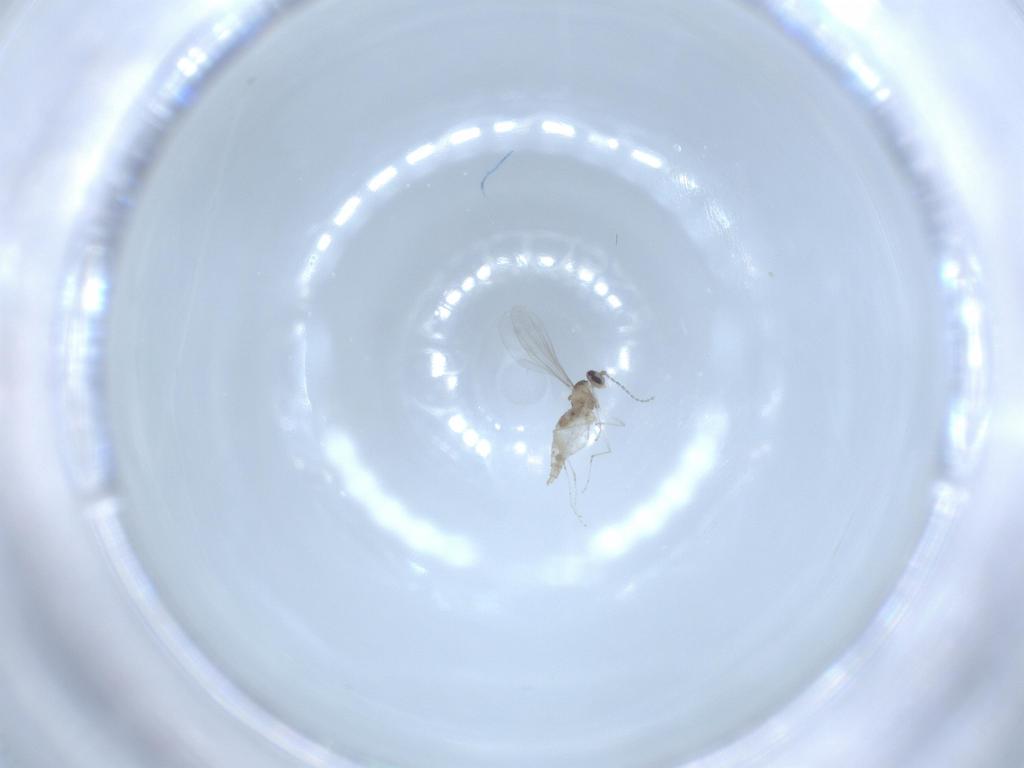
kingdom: Animalia
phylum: Arthropoda
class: Insecta
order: Diptera
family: Cecidomyiidae
